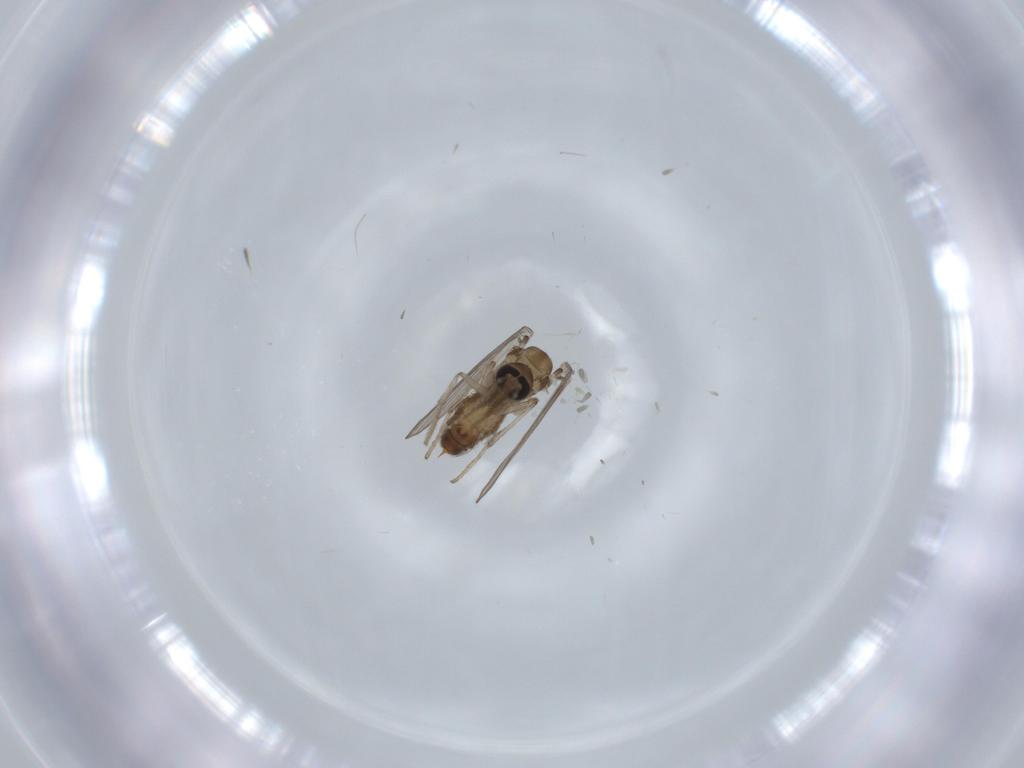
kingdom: Animalia
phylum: Arthropoda
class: Insecta
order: Diptera
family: Psychodidae
